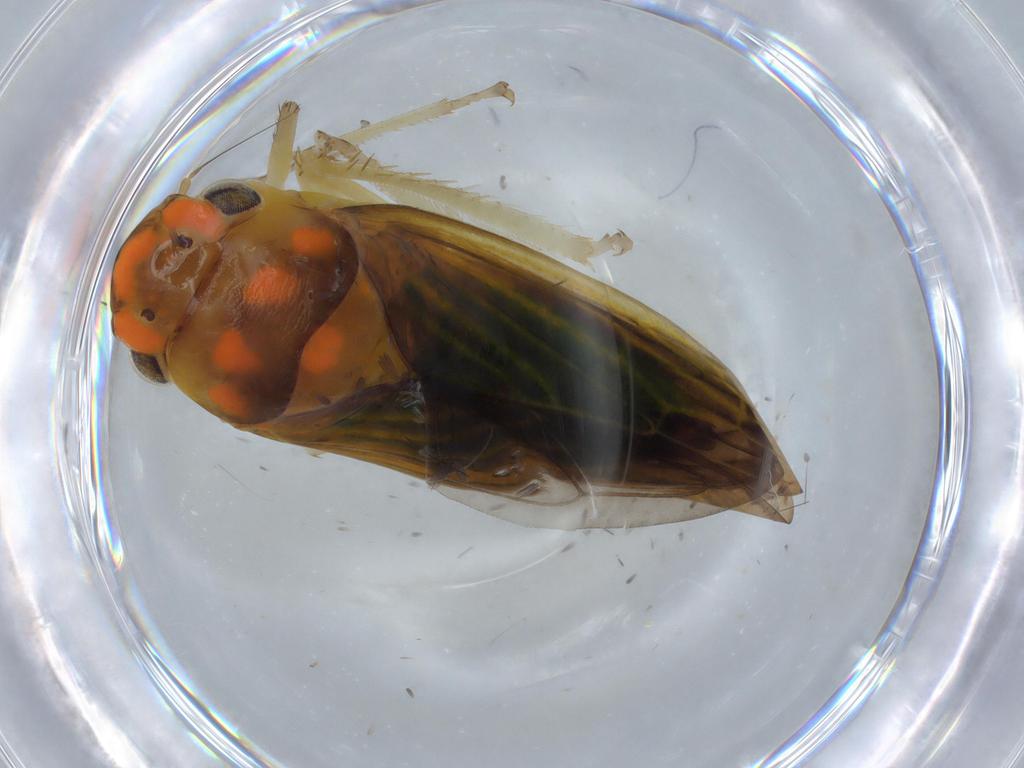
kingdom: Animalia
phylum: Arthropoda
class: Insecta
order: Hemiptera
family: Cicadellidae
